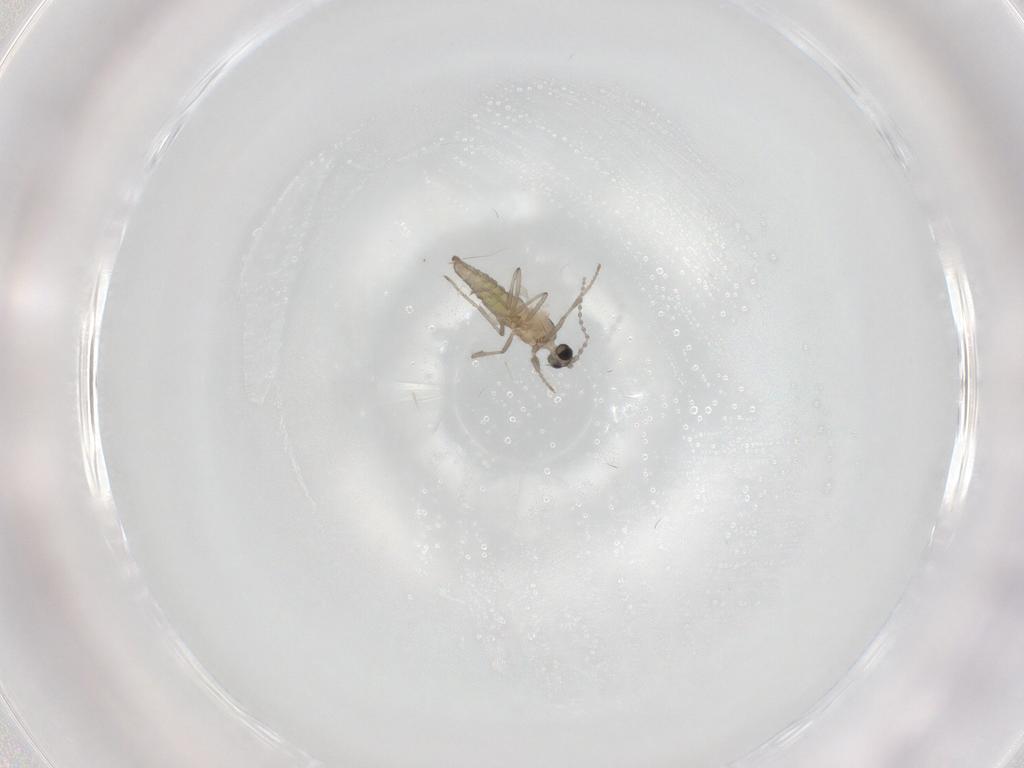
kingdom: Animalia
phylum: Arthropoda
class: Insecta
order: Diptera
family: Cecidomyiidae
